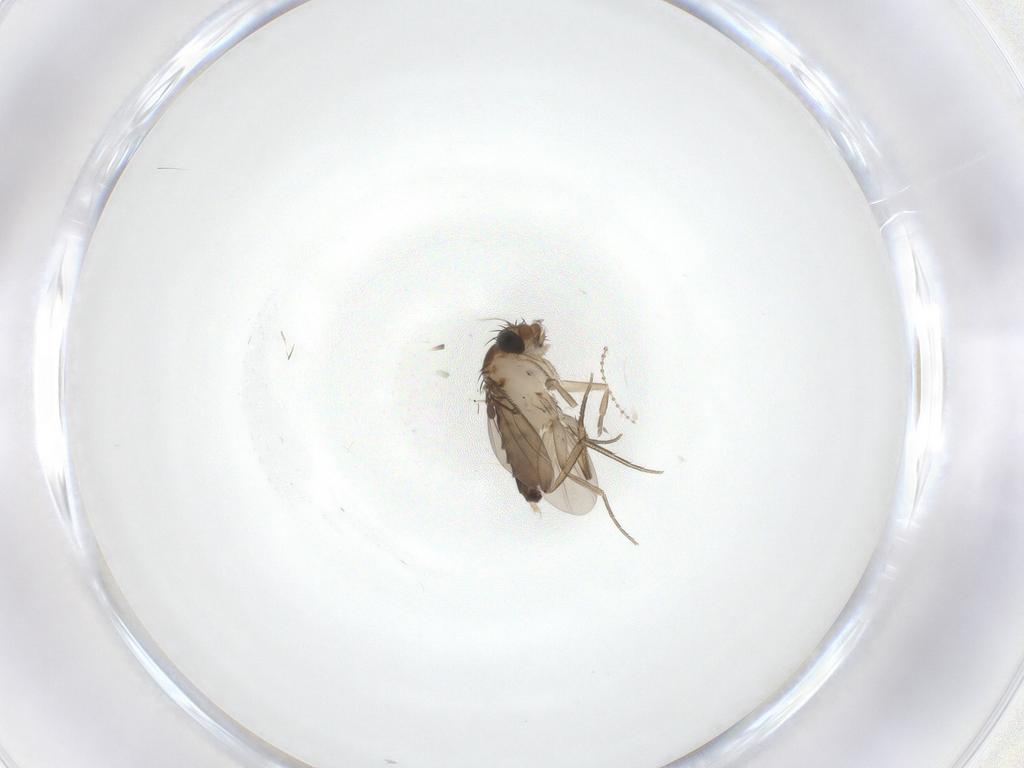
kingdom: Animalia
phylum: Arthropoda
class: Insecta
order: Diptera
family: Phoridae
